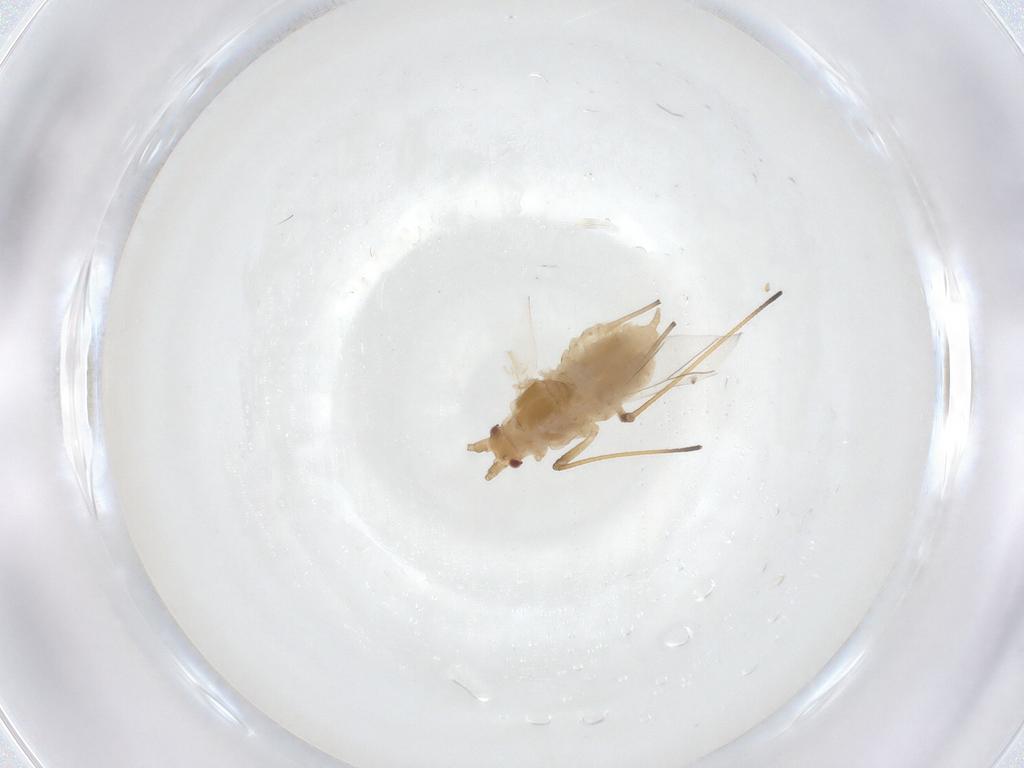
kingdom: Animalia
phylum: Arthropoda
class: Insecta
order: Hemiptera
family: Aphididae
